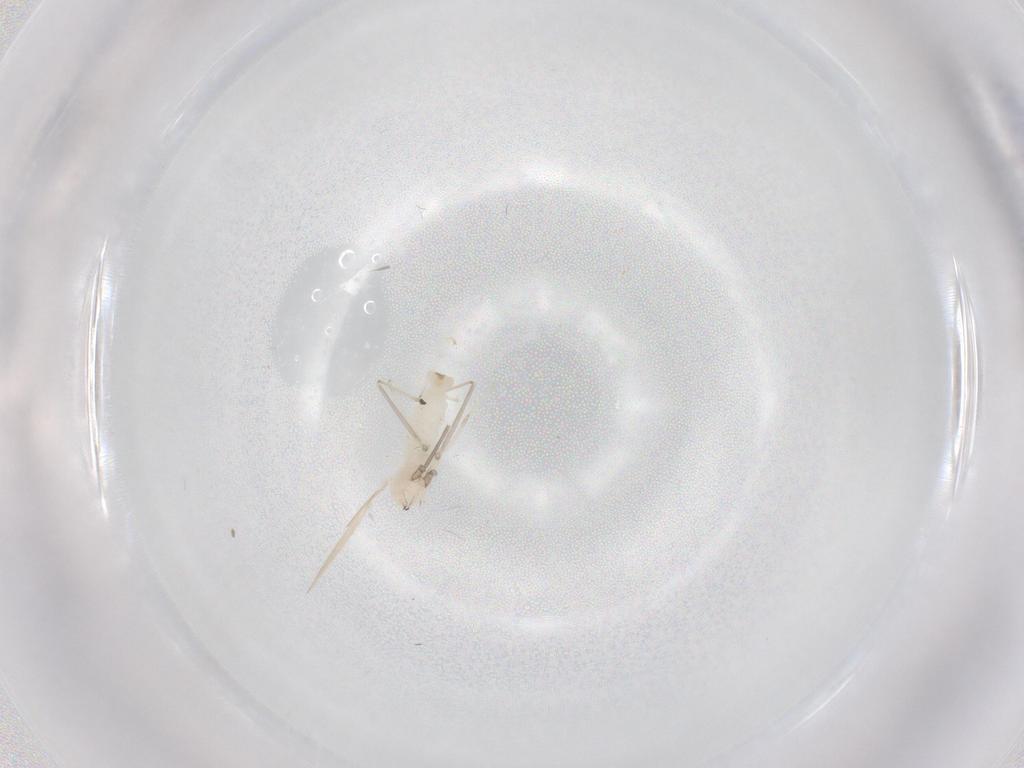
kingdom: Animalia
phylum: Arthropoda
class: Insecta
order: Diptera
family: Cecidomyiidae
